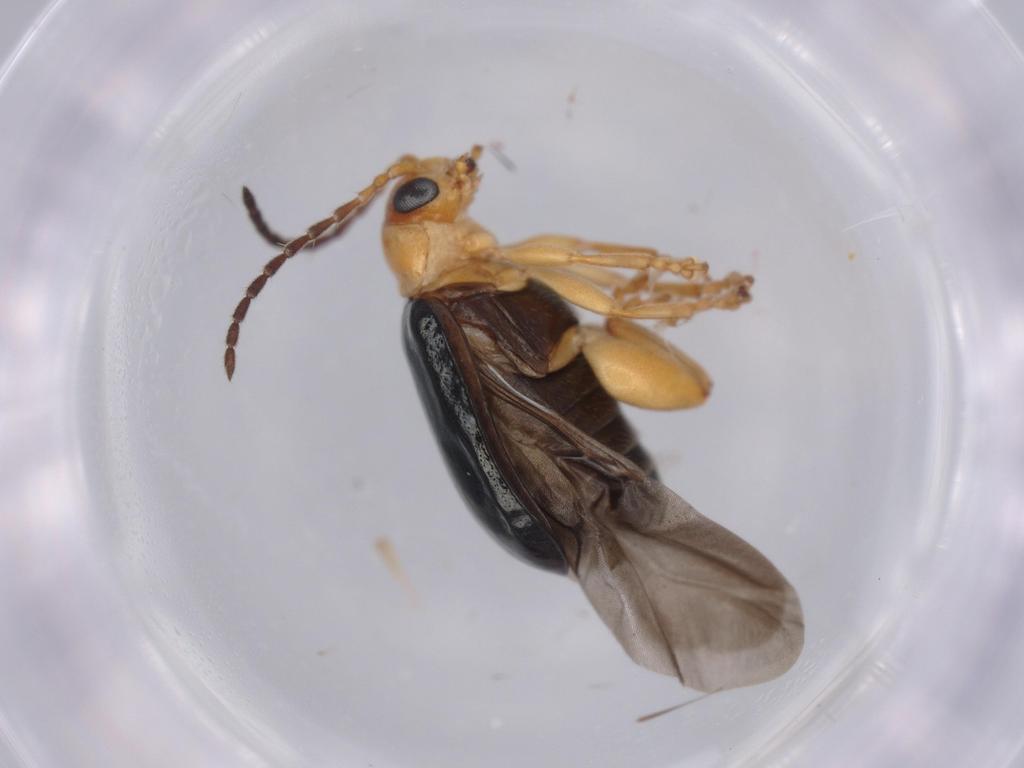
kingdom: Animalia
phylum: Arthropoda
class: Insecta
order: Coleoptera
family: Chrysomelidae
